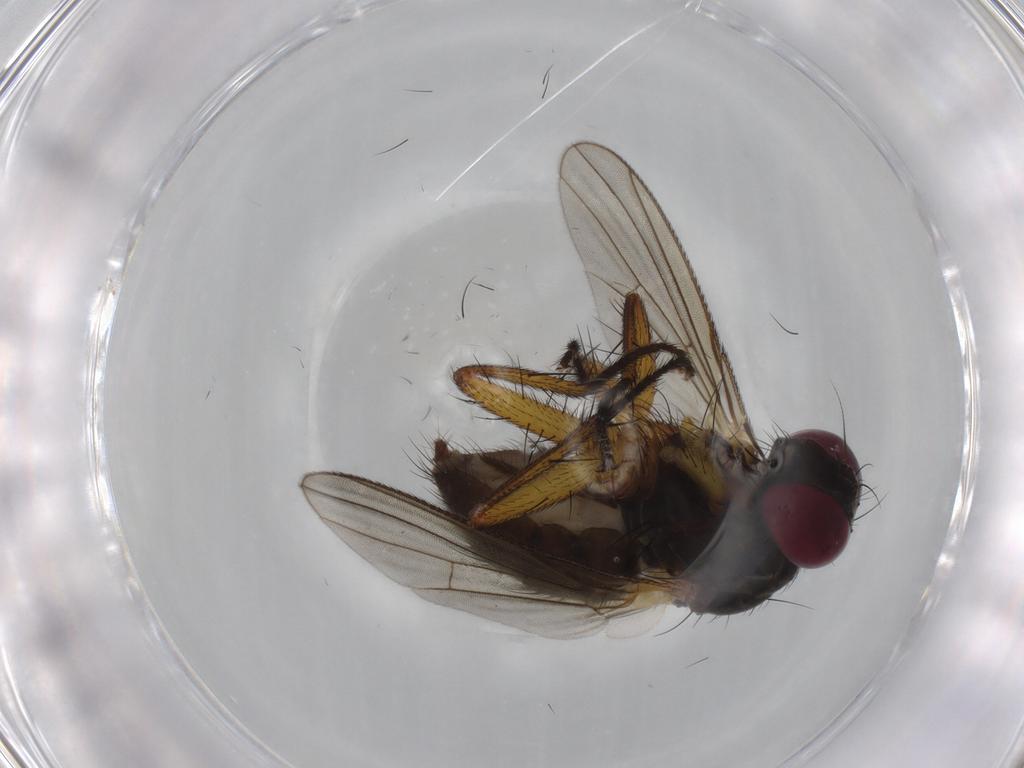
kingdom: Animalia
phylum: Arthropoda
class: Insecta
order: Diptera
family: Muscidae
